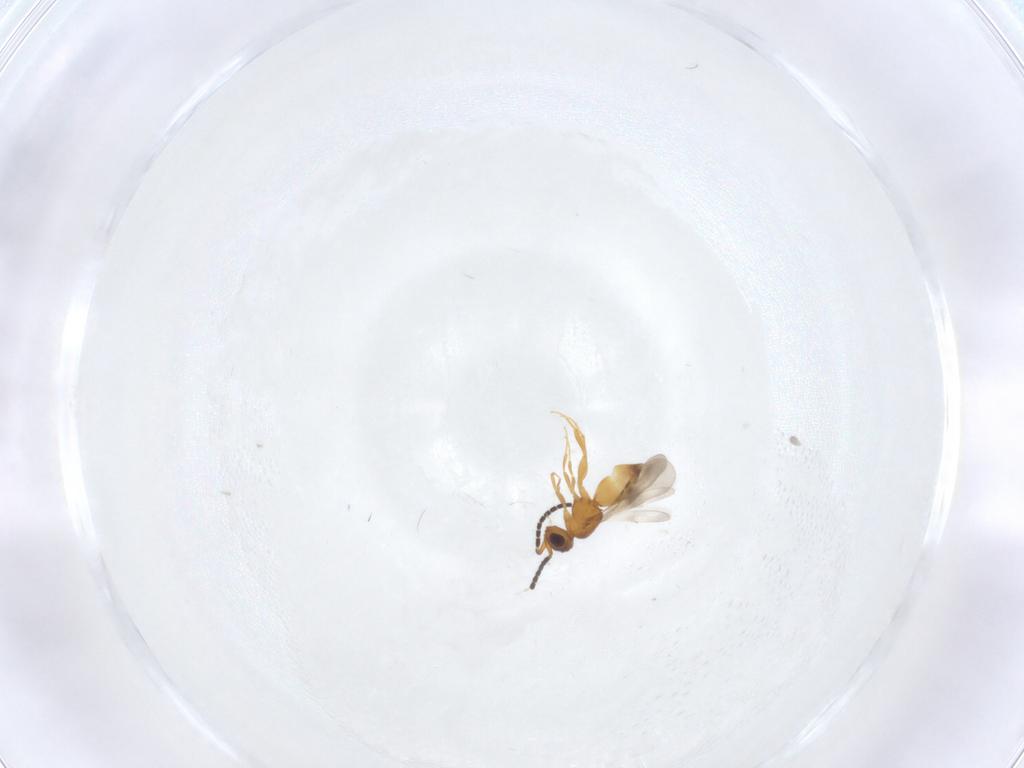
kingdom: Animalia
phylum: Arthropoda
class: Insecta
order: Hymenoptera
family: Ceraphronidae
